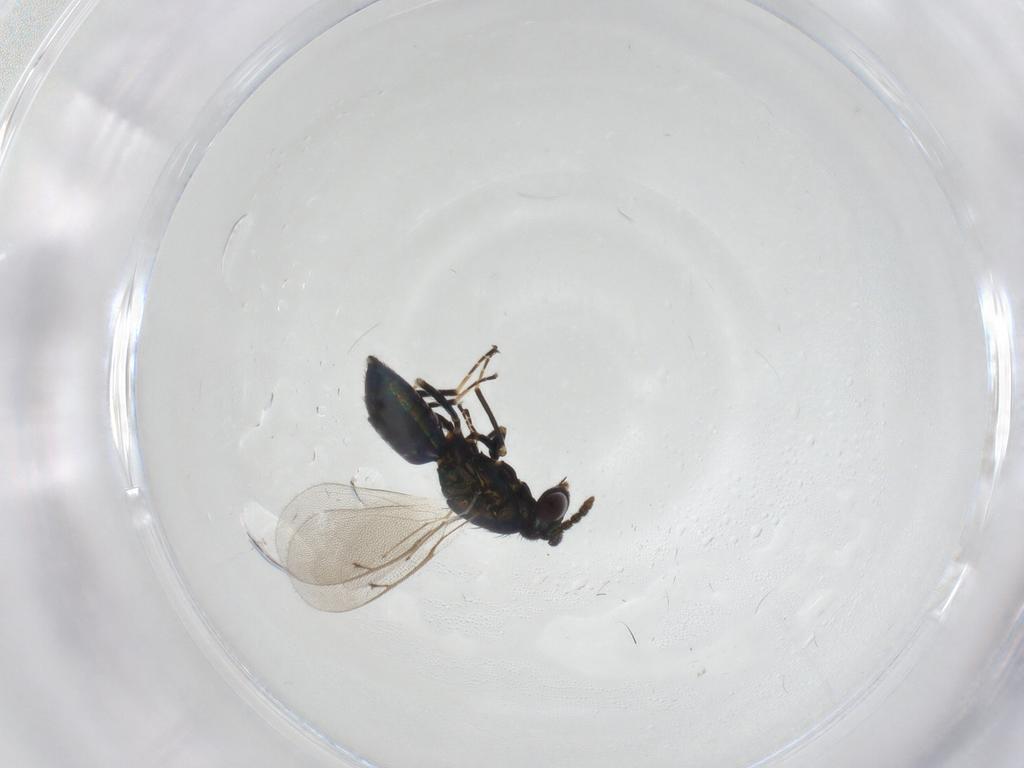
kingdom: Animalia
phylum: Arthropoda
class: Insecta
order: Hymenoptera
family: Eulophidae
